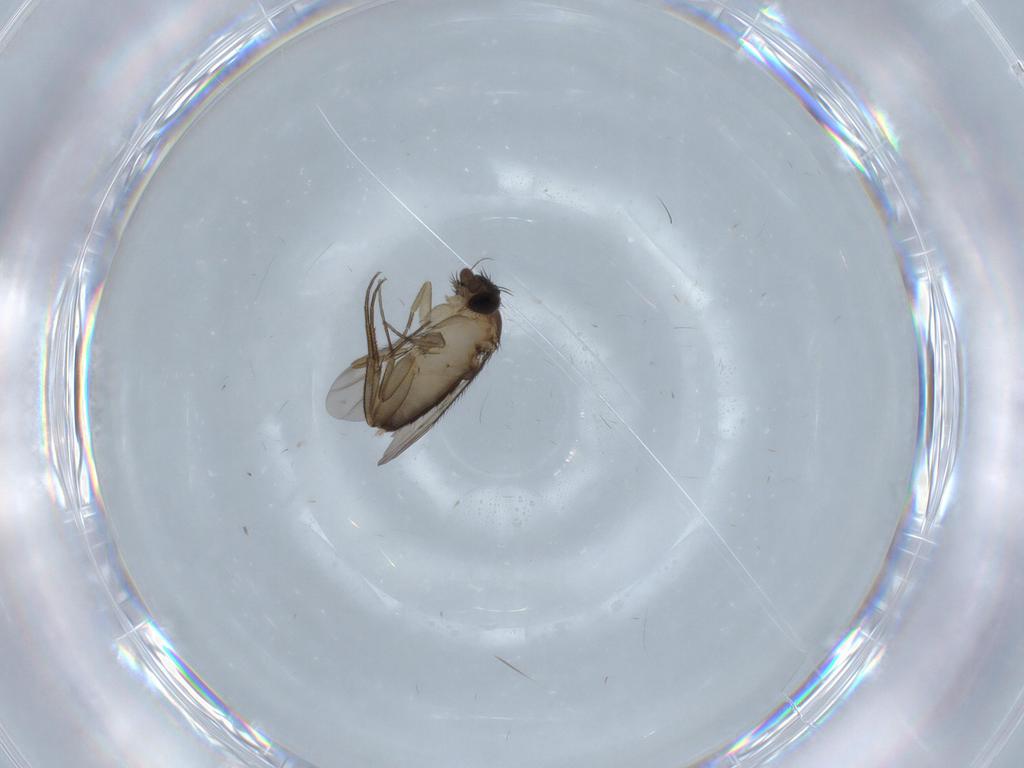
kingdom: Animalia
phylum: Arthropoda
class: Insecta
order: Diptera
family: Phoridae
